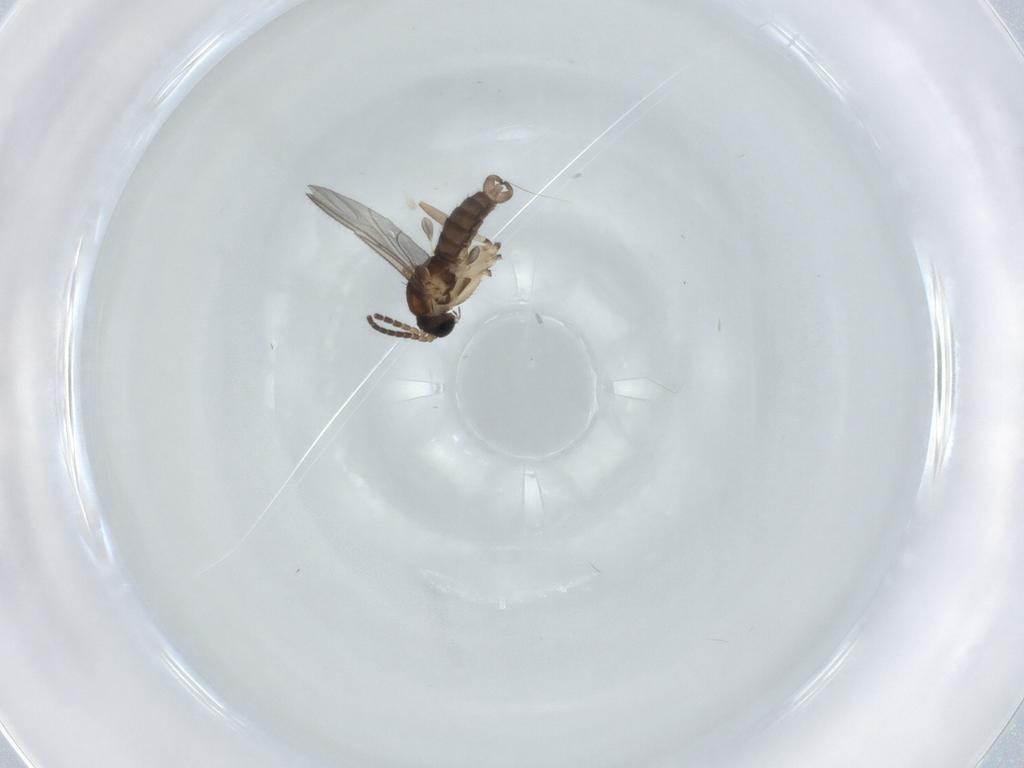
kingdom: Animalia
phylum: Arthropoda
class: Insecta
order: Diptera
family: Sciaridae
